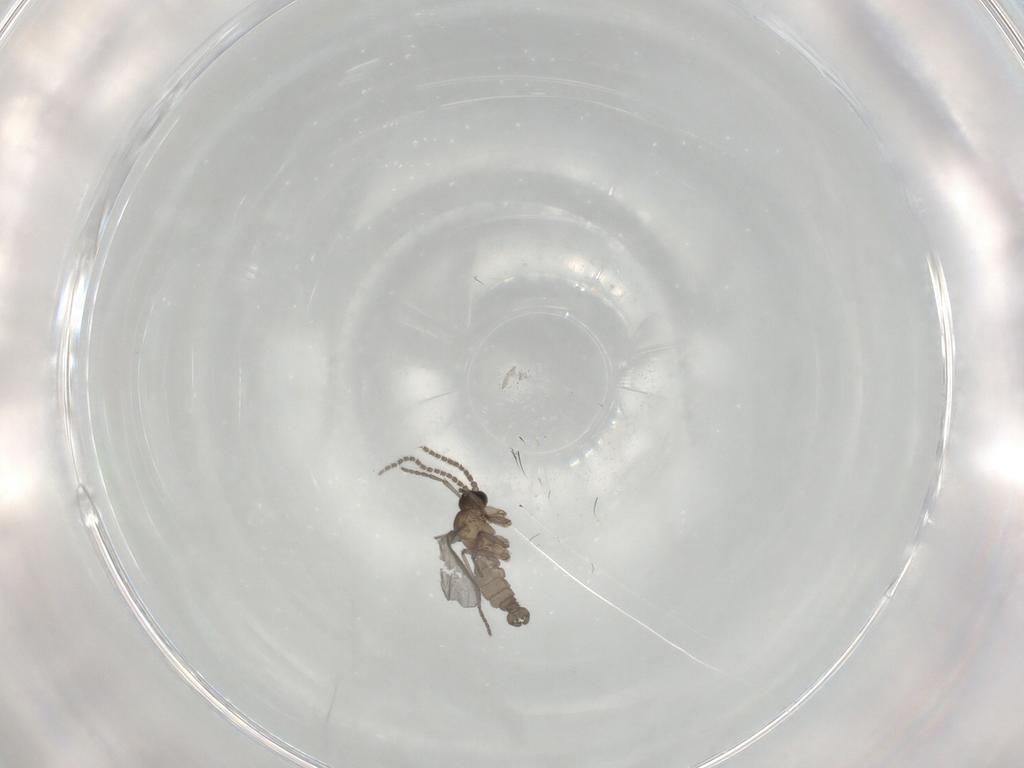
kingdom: Animalia
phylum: Arthropoda
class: Insecta
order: Diptera
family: Sciaridae
